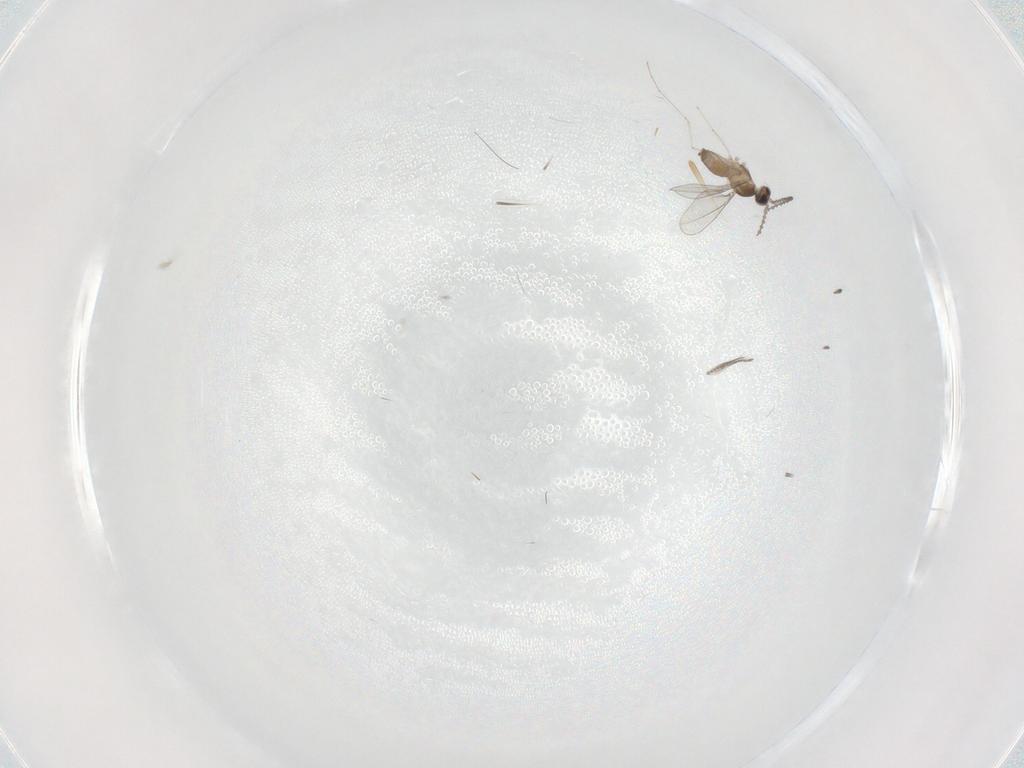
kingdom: Animalia
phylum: Arthropoda
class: Insecta
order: Diptera
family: Cecidomyiidae
